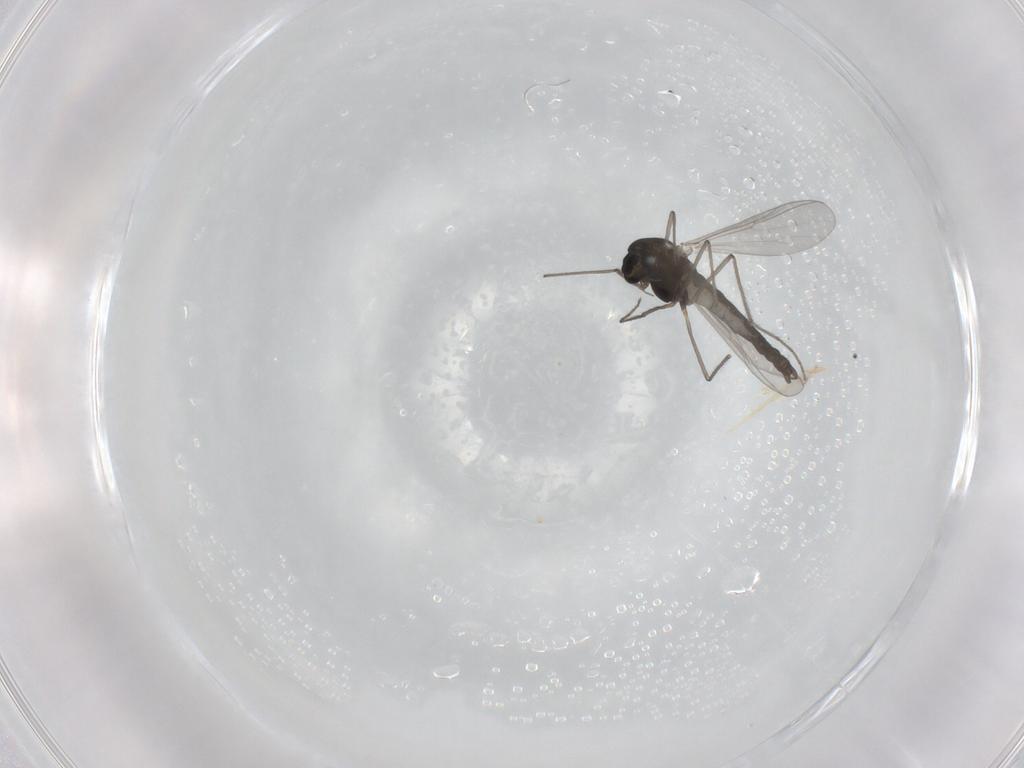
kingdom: Animalia
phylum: Arthropoda
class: Insecta
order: Diptera
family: Chironomidae
